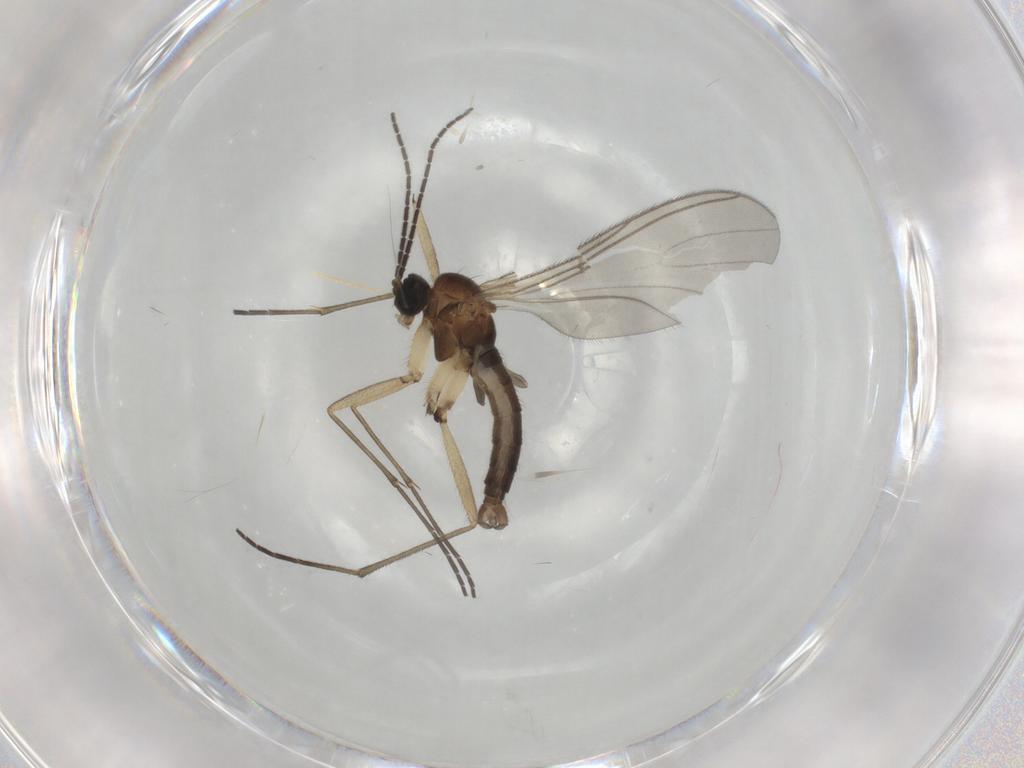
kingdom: Animalia
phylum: Arthropoda
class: Insecta
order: Diptera
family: Sciaridae
